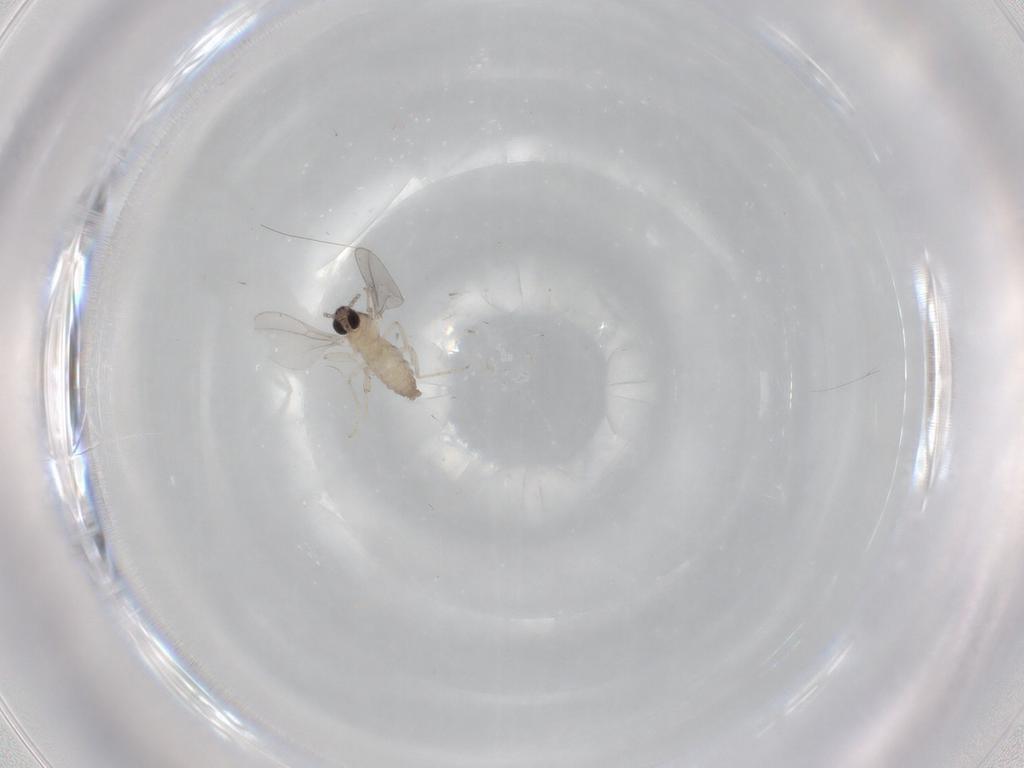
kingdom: Animalia
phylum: Arthropoda
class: Insecta
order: Diptera
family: Cecidomyiidae
